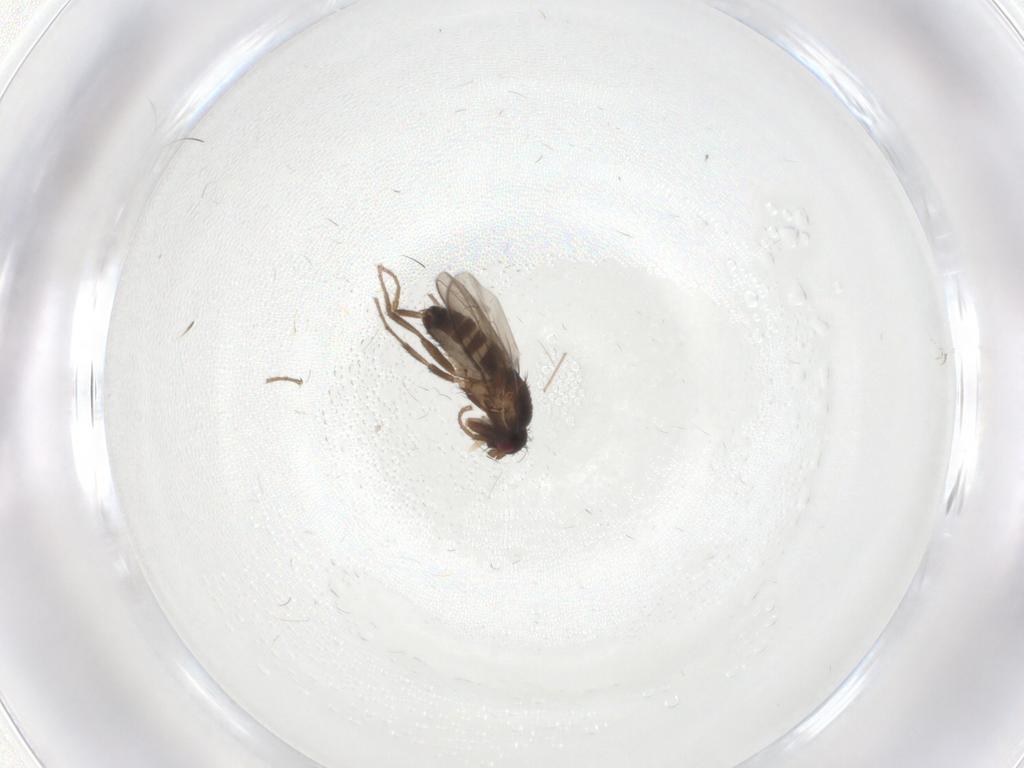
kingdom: Animalia
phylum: Arthropoda
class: Insecta
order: Diptera
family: Sphaeroceridae
